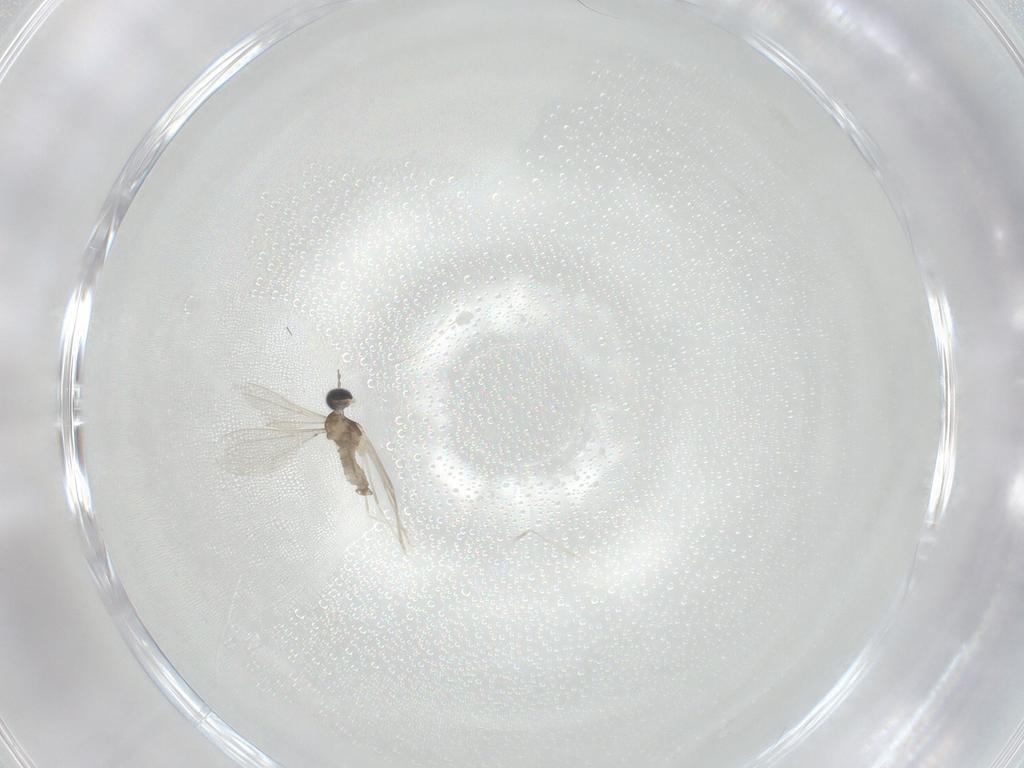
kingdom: Animalia
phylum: Arthropoda
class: Insecta
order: Diptera
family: Cecidomyiidae
